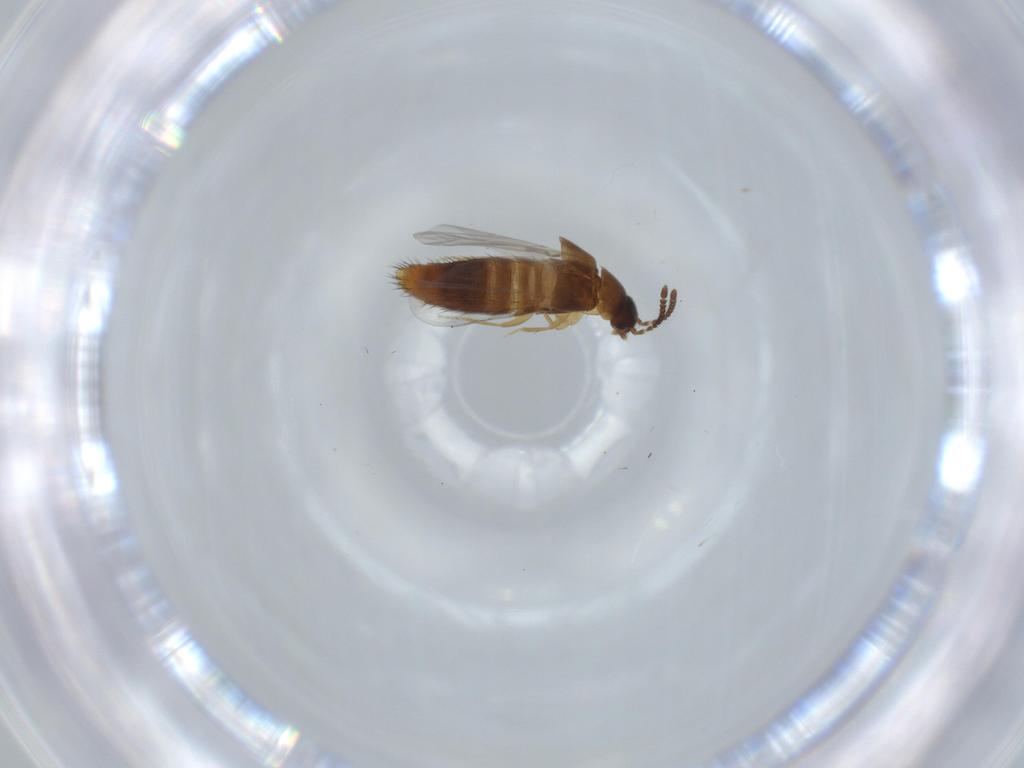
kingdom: Animalia
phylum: Arthropoda
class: Insecta
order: Coleoptera
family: Staphylinidae
